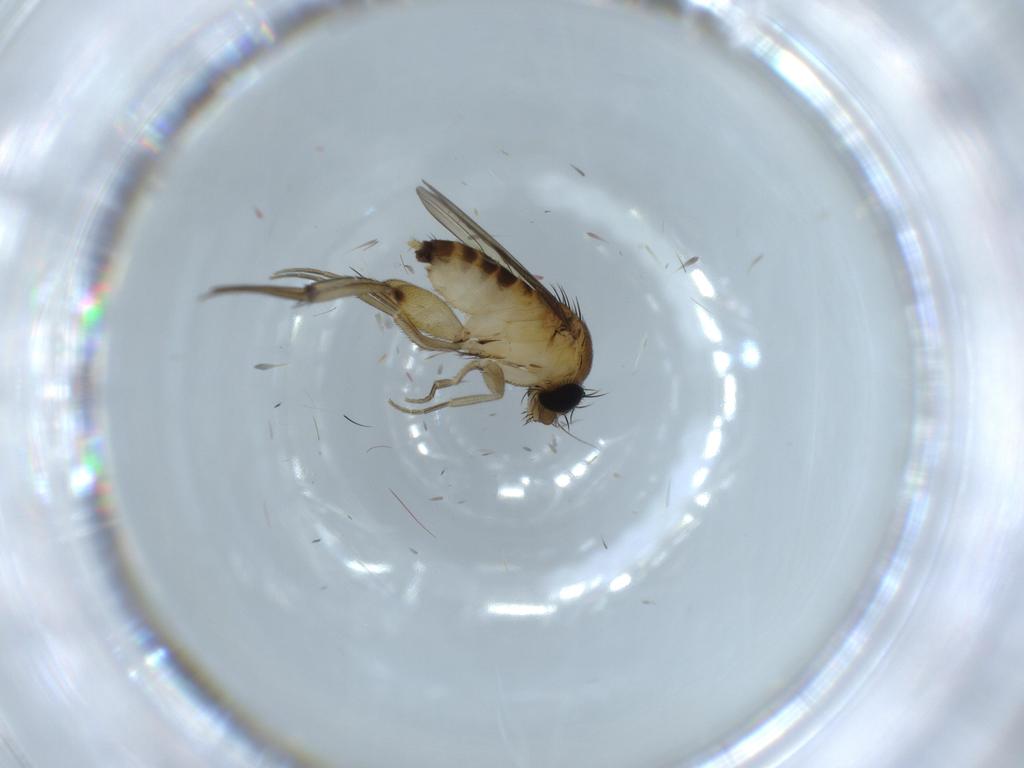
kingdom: Animalia
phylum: Arthropoda
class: Insecta
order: Diptera
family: Phoridae
